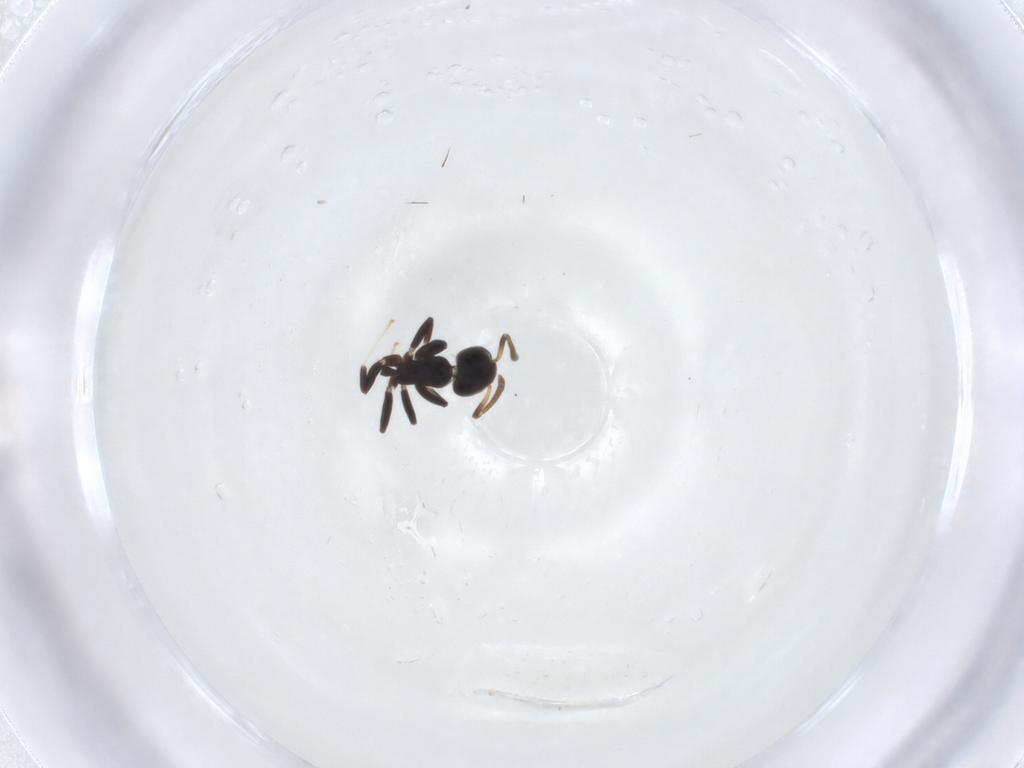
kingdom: Animalia
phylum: Arthropoda
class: Insecta
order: Hymenoptera
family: Formicidae
